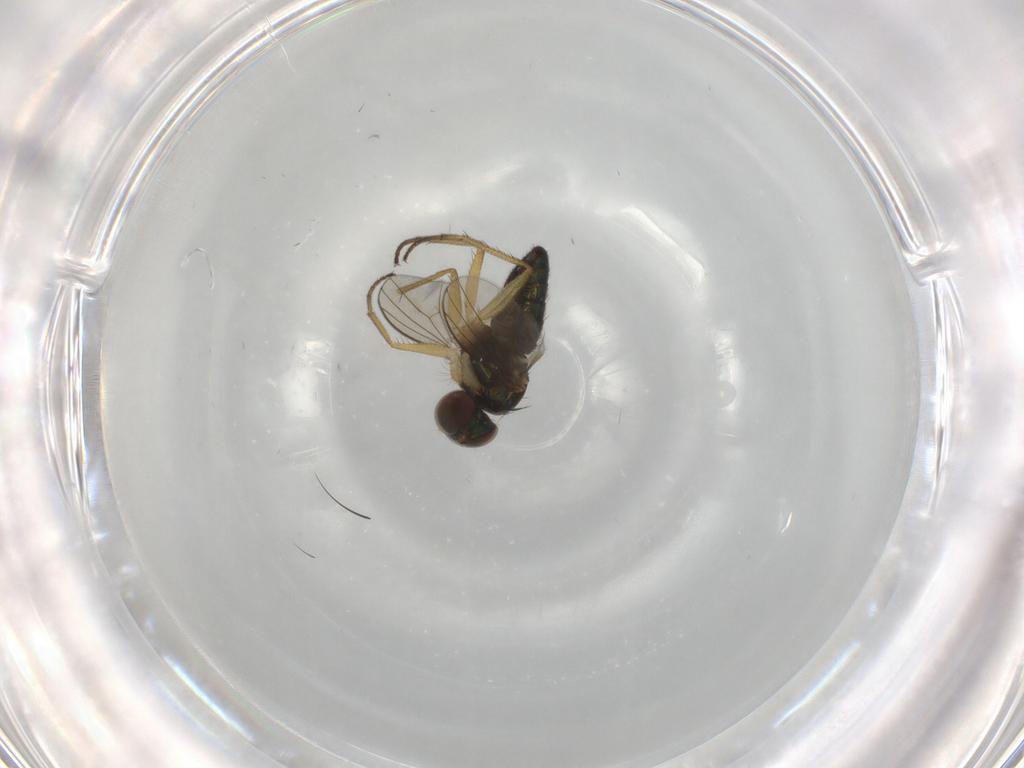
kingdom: Animalia
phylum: Arthropoda
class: Insecta
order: Diptera
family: Dolichopodidae
